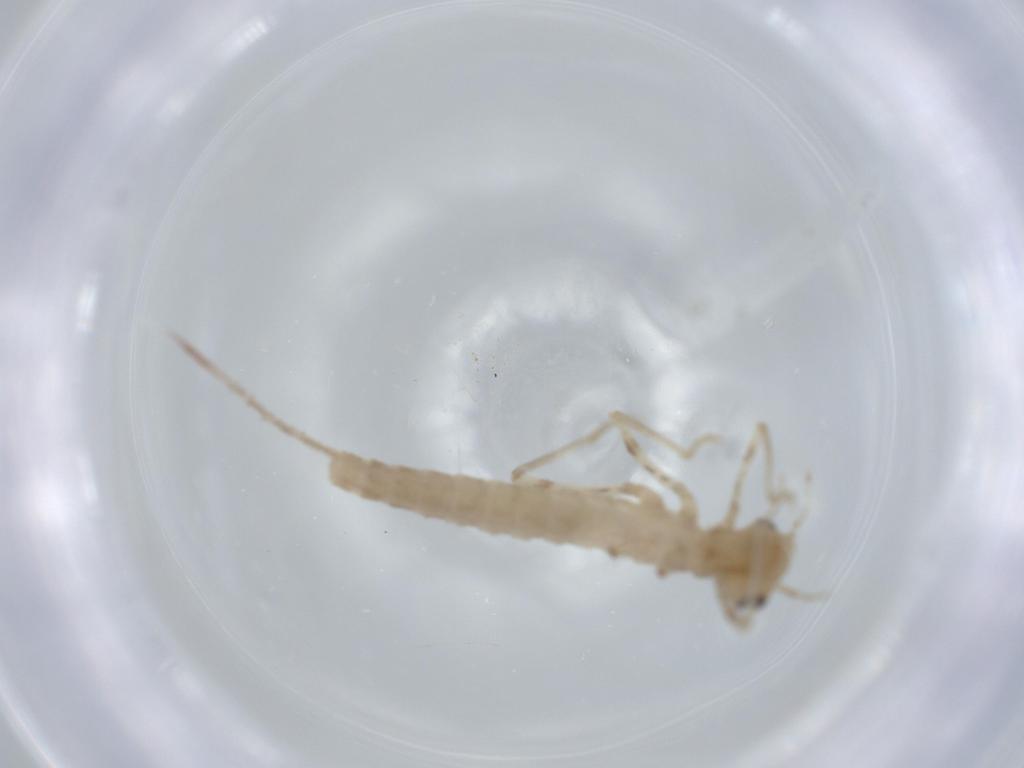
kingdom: Animalia
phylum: Arthropoda
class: Insecta
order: Odonata
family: Coenagrionidae
